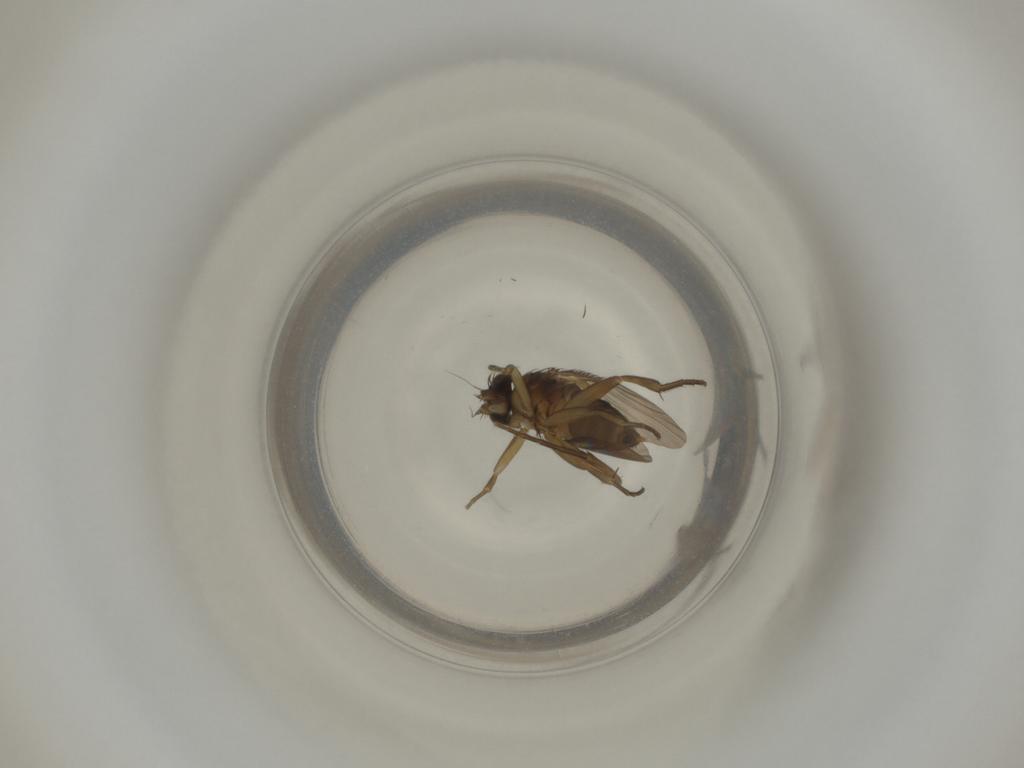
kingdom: Animalia
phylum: Arthropoda
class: Insecta
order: Diptera
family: Phoridae
